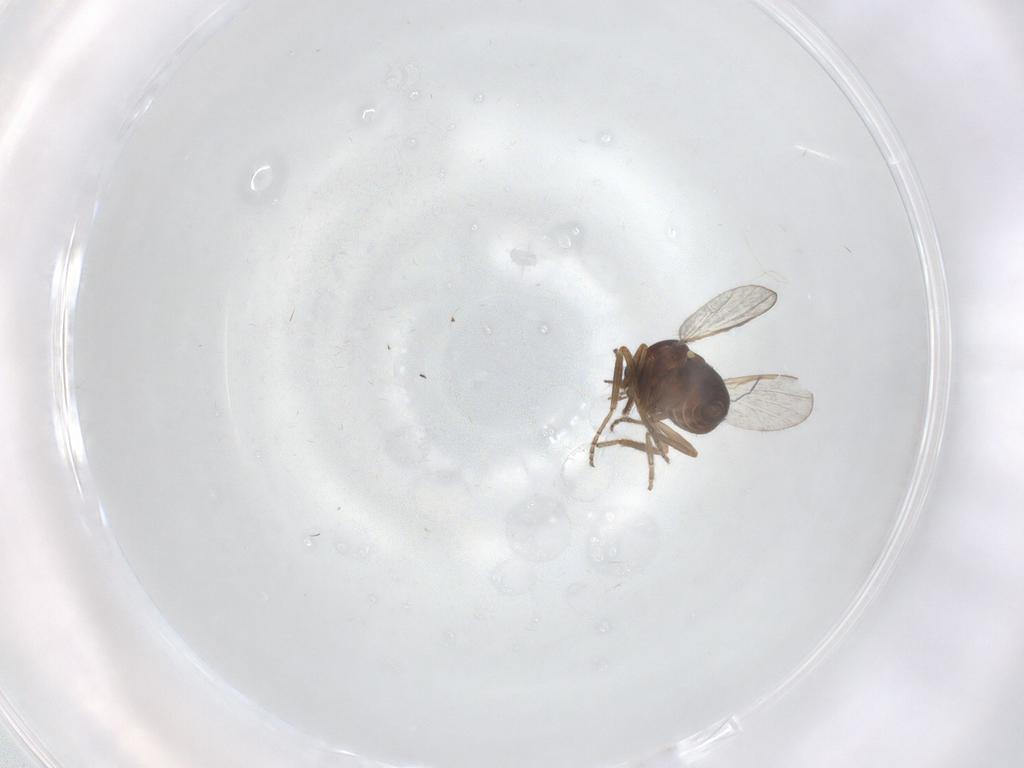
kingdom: Animalia
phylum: Arthropoda
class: Insecta
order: Diptera
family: Ceratopogonidae
